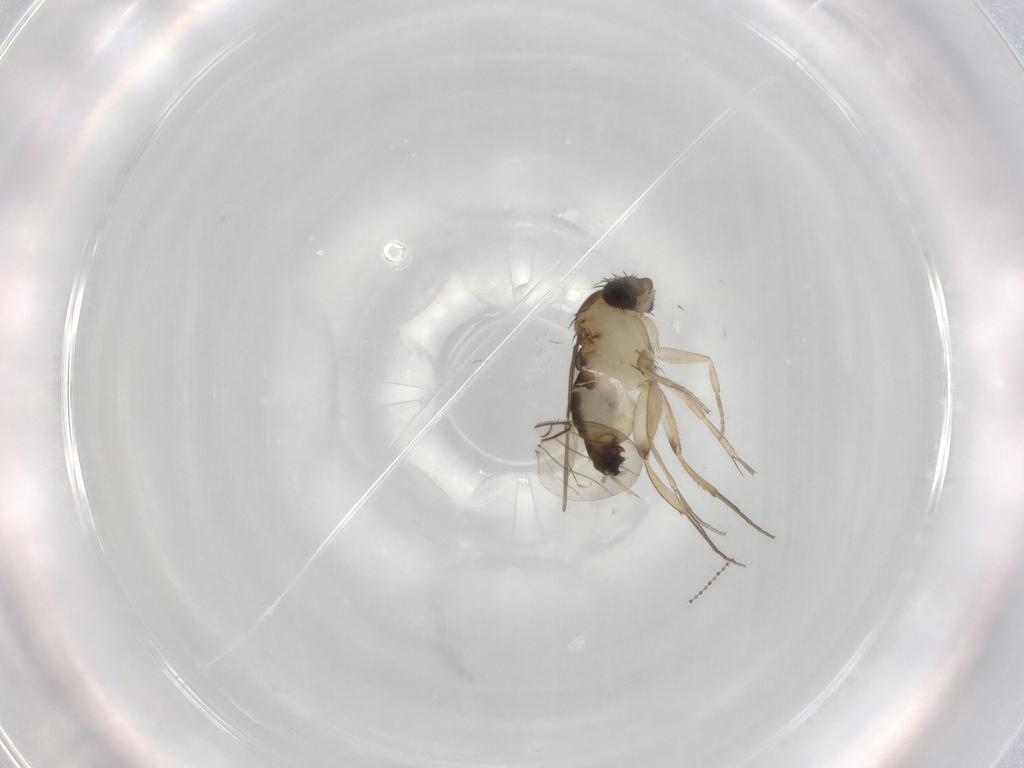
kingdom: Animalia
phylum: Arthropoda
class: Insecta
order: Diptera
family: Phoridae
